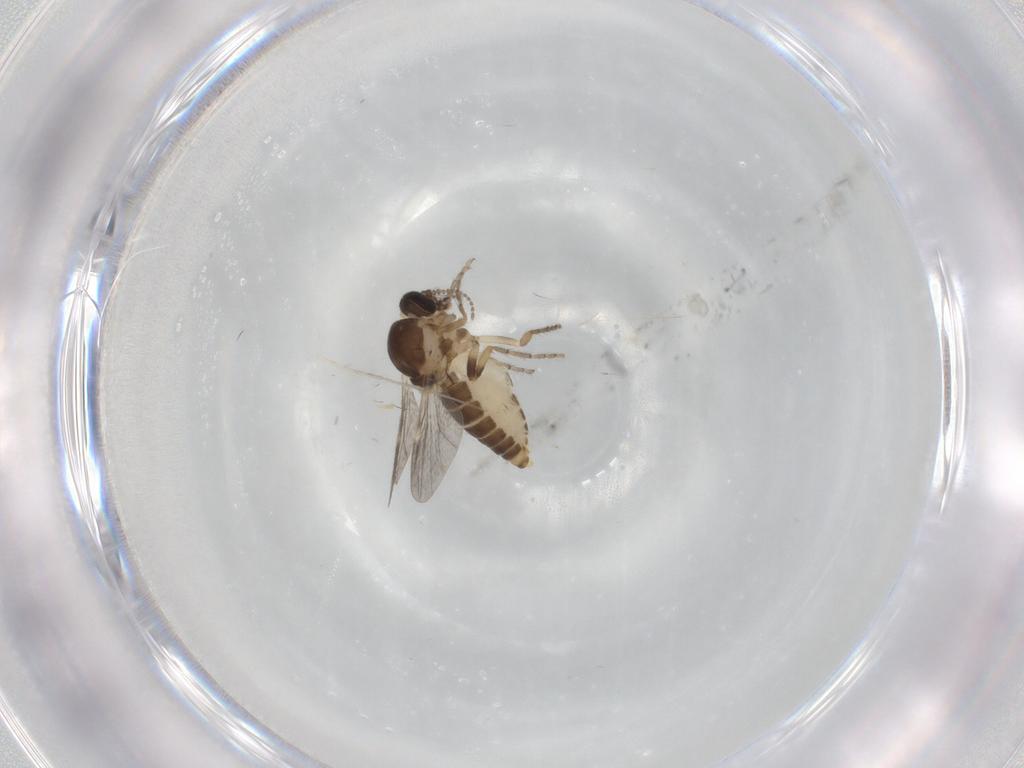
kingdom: Animalia
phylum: Arthropoda
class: Insecta
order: Diptera
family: Ceratopogonidae
